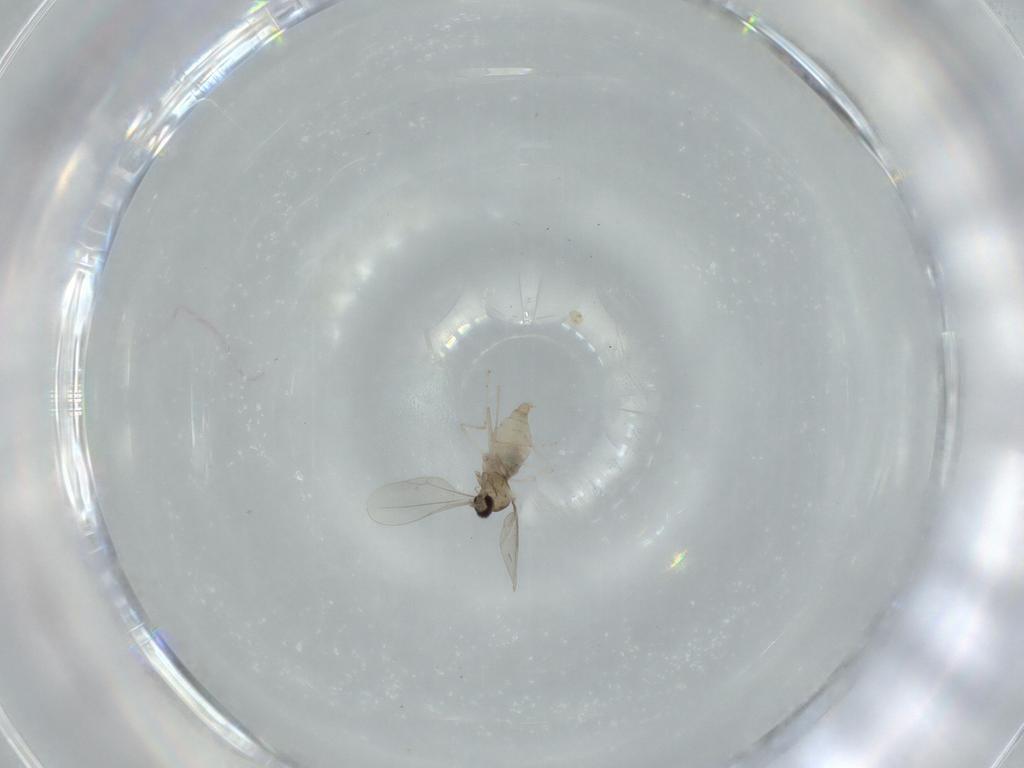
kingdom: Animalia
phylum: Arthropoda
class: Insecta
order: Diptera
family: Cecidomyiidae
